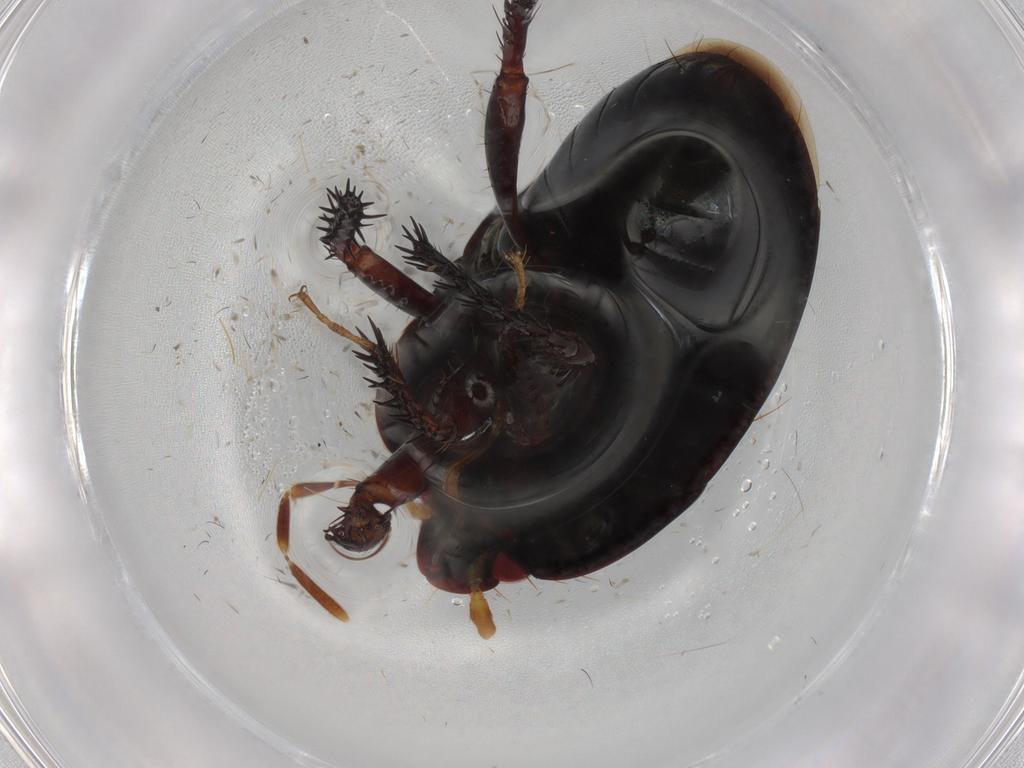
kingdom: Animalia
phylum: Arthropoda
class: Insecta
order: Hemiptera
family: Cydnidae
